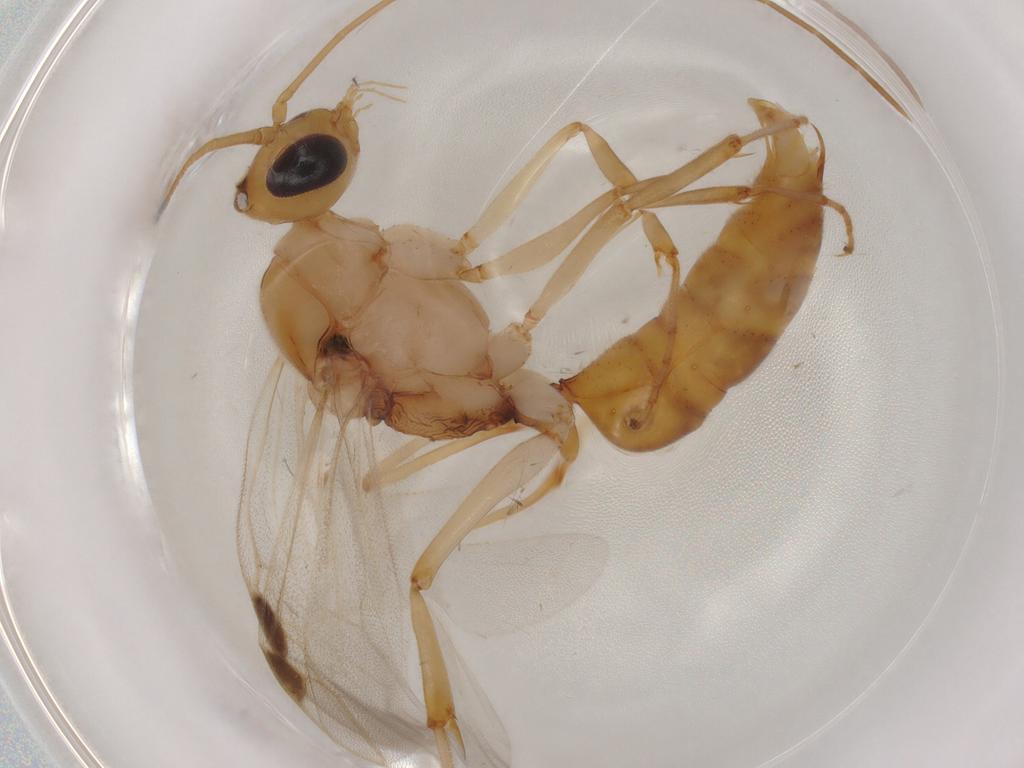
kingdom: Animalia
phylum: Arthropoda
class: Insecta
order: Hymenoptera
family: Formicidae
